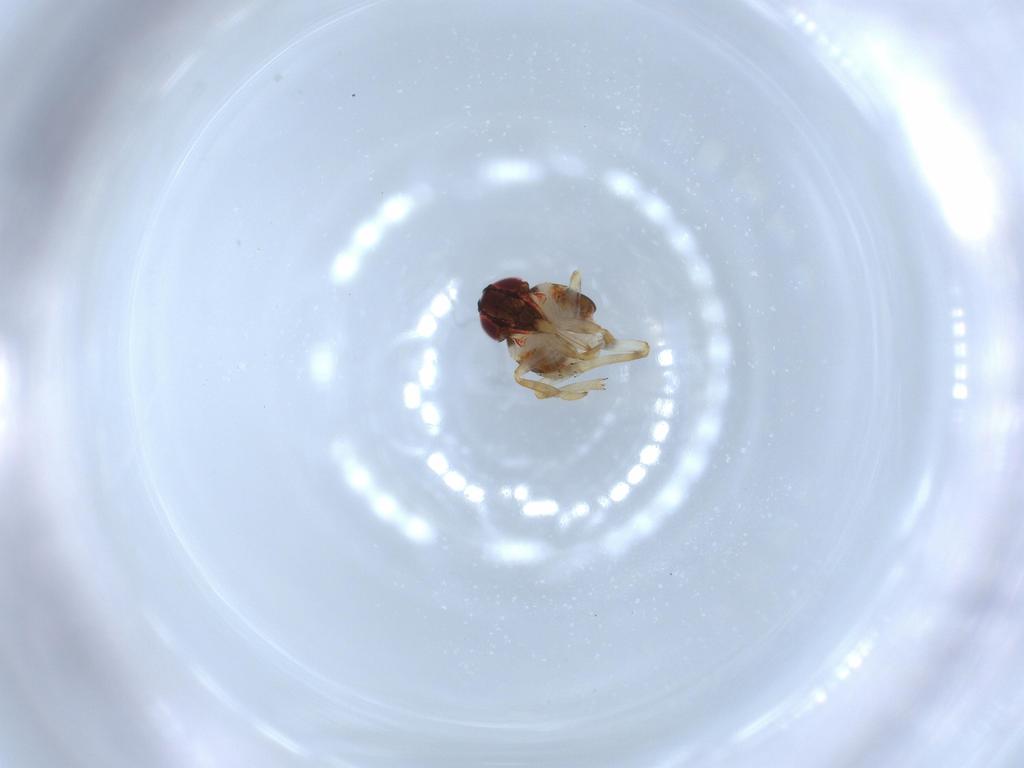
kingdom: Animalia
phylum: Arthropoda
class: Insecta
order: Hemiptera
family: Issidae
